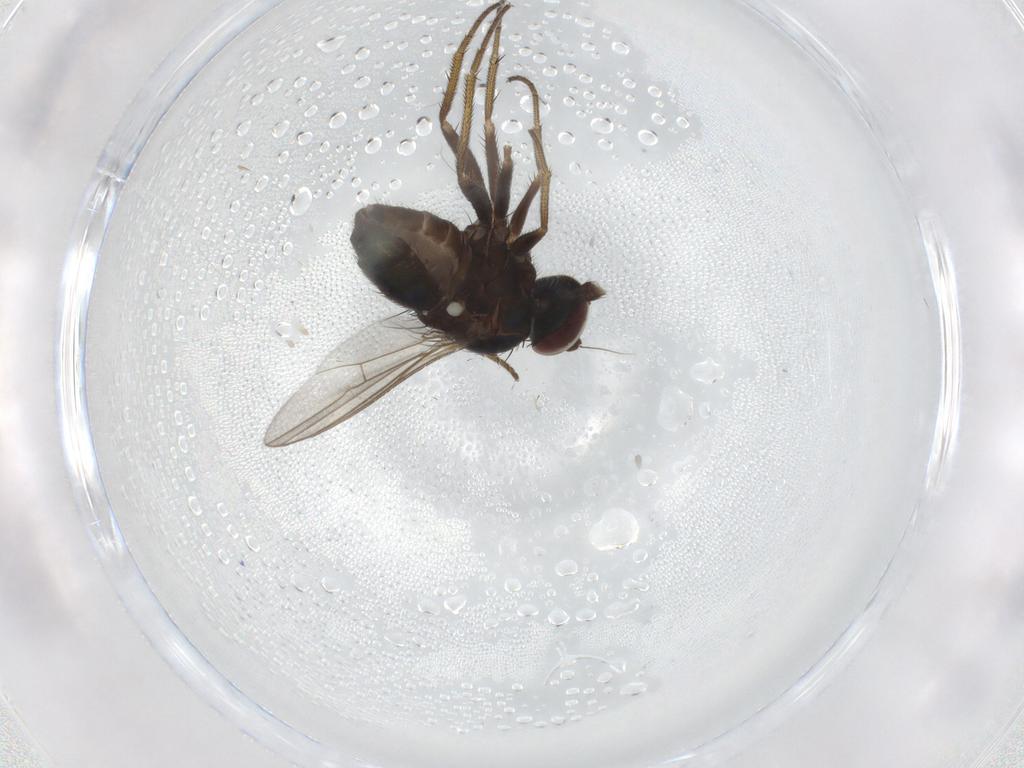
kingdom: Animalia
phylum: Arthropoda
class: Insecta
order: Diptera
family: Dolichopodidae
